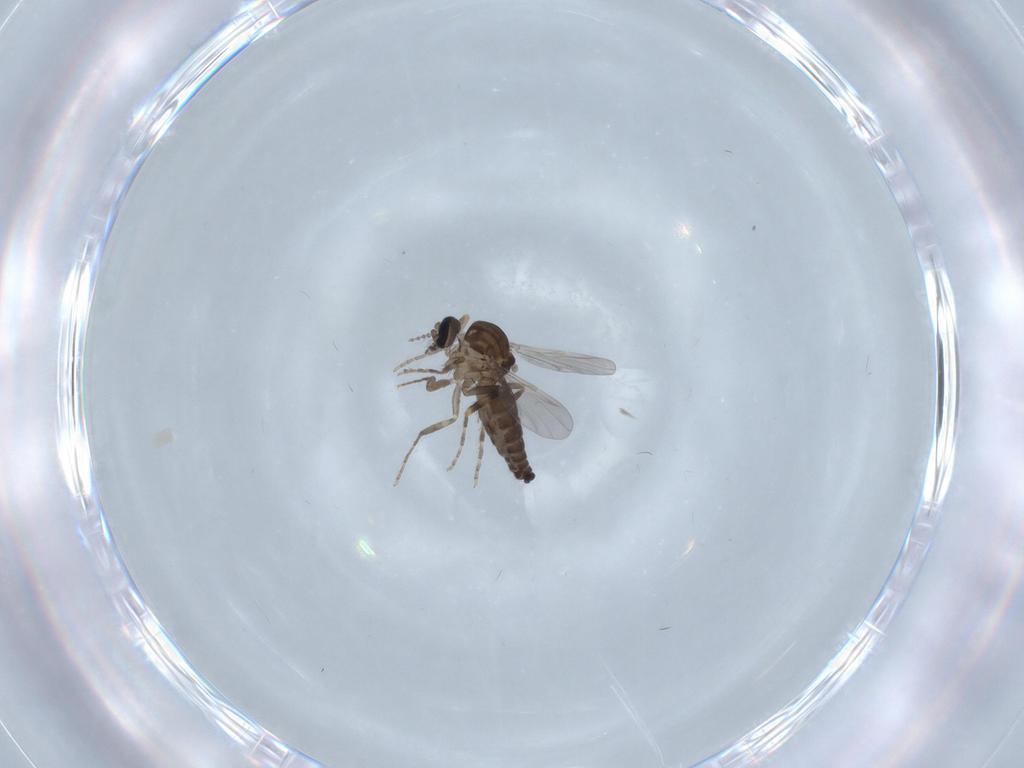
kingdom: Animalia
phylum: Arthropoda
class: Insecta
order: Diptera
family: Ceratopogonidae
